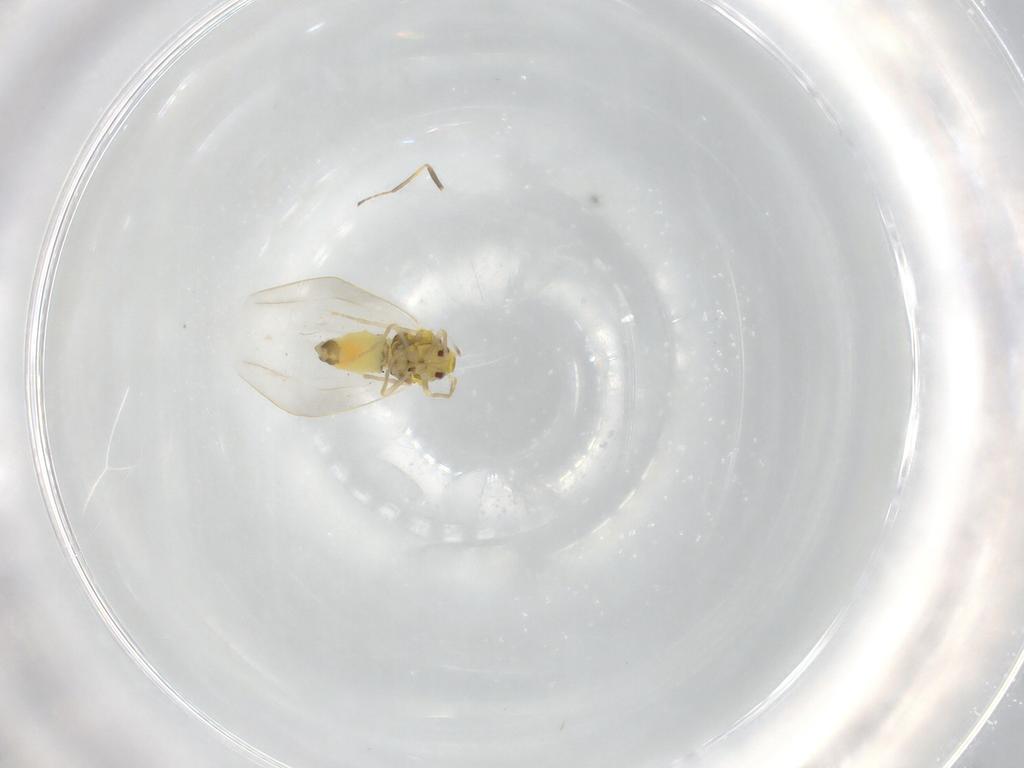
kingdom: Animalia
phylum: Arthropoda
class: Insecta
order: Hemiptera
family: Aleyrodidae
